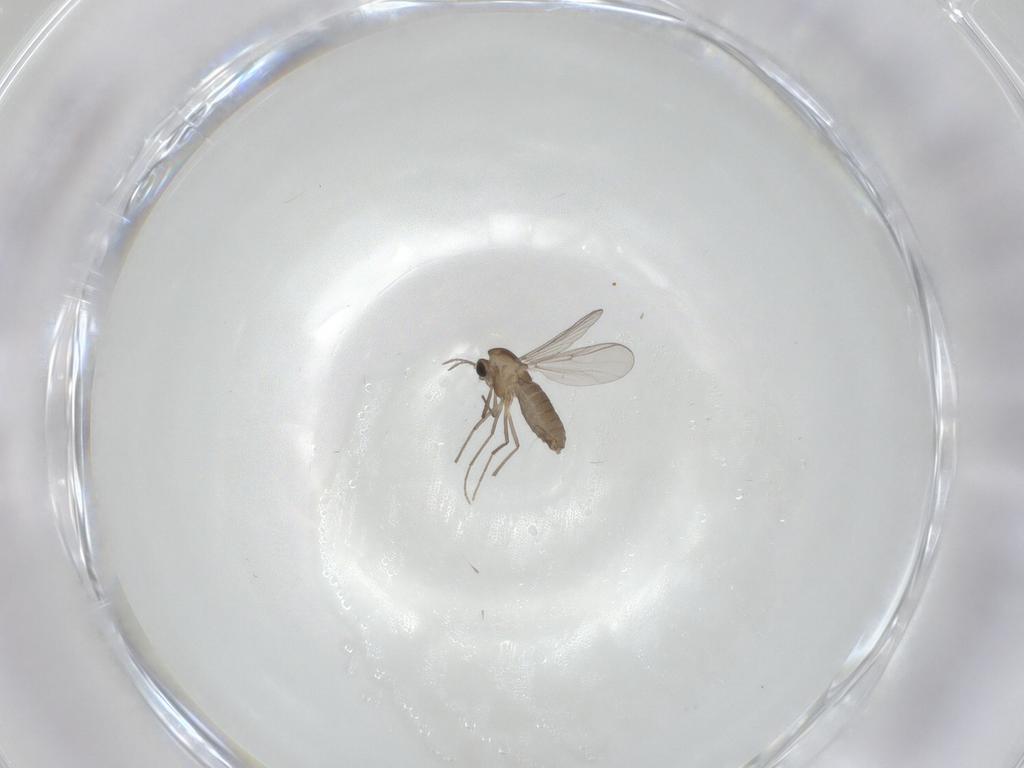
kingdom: Animalia
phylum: Arthropoda
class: Insecta
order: Diptera
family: Chironomidae
